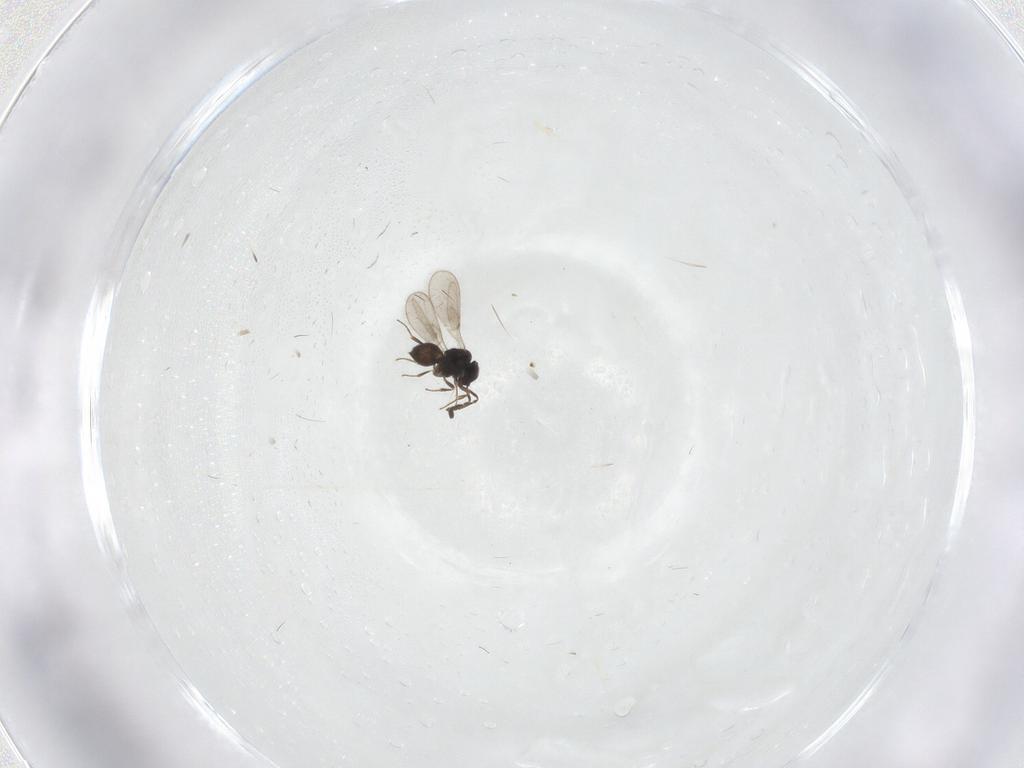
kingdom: Animalia
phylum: Arthropoda
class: Insecta
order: Hymenoptera
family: Scelionidae
